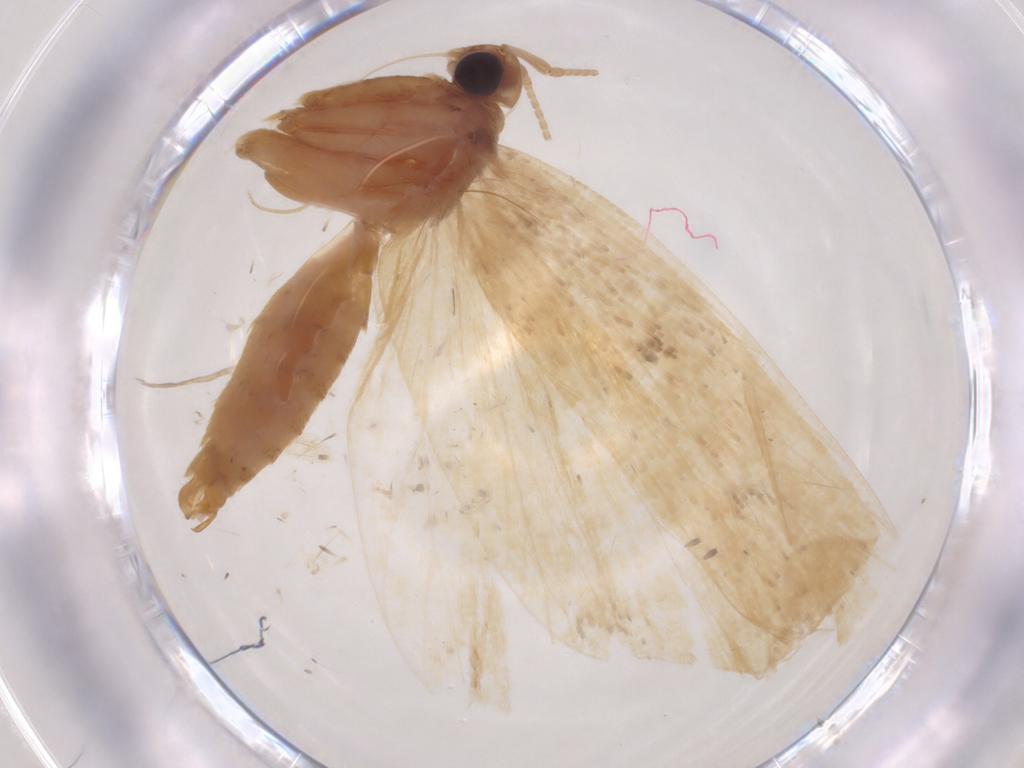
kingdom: Animalia
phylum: Arthropoda
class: Insecta
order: Lepidoptera
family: Lecithoceridae
